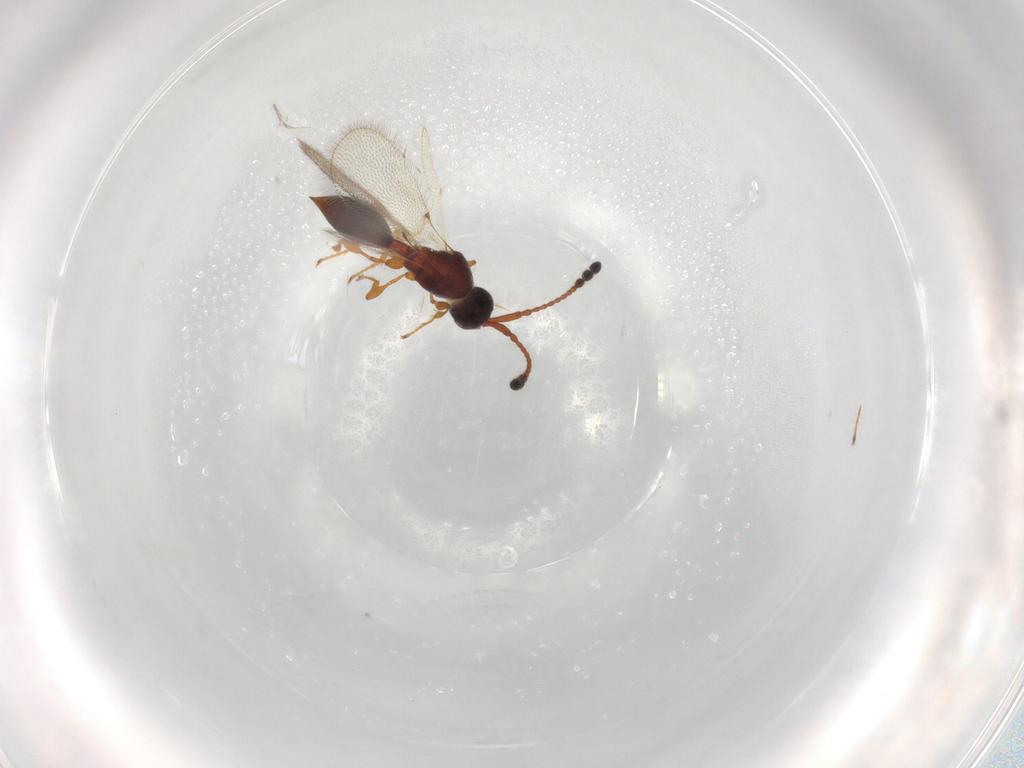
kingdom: Animalia
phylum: Arthropoda
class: Insecta
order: Hymenoptera
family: Diapriidae
